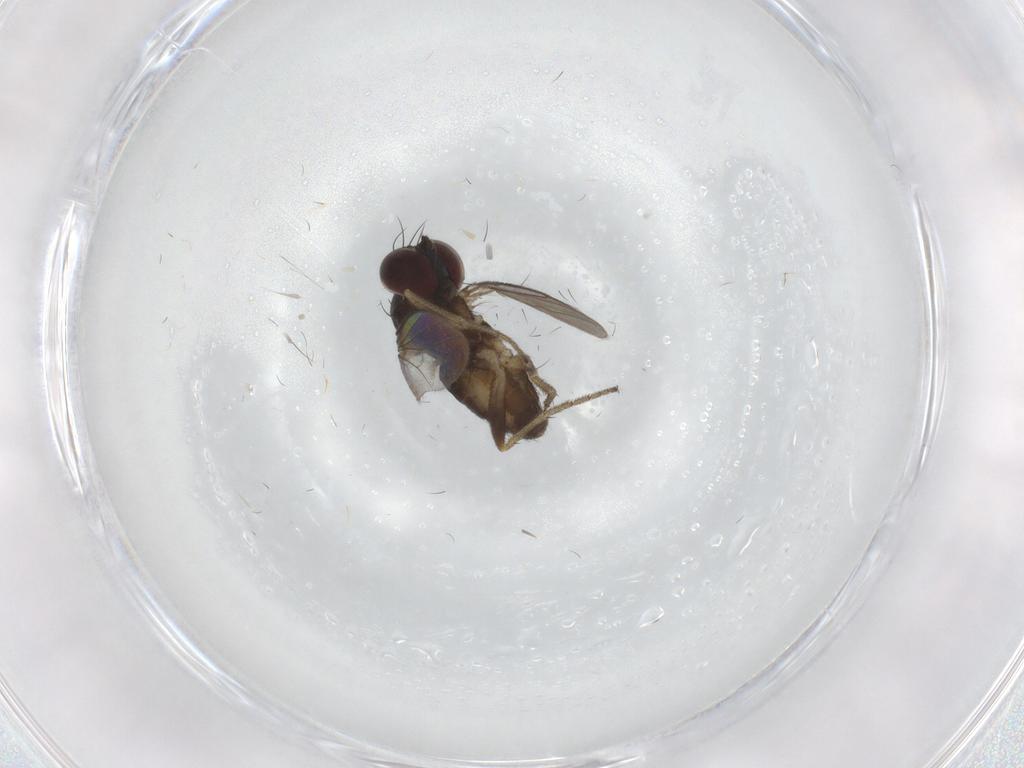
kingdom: Animalia
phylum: Arthropoda
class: Insecta
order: Diptera
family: Dolichopodidae
